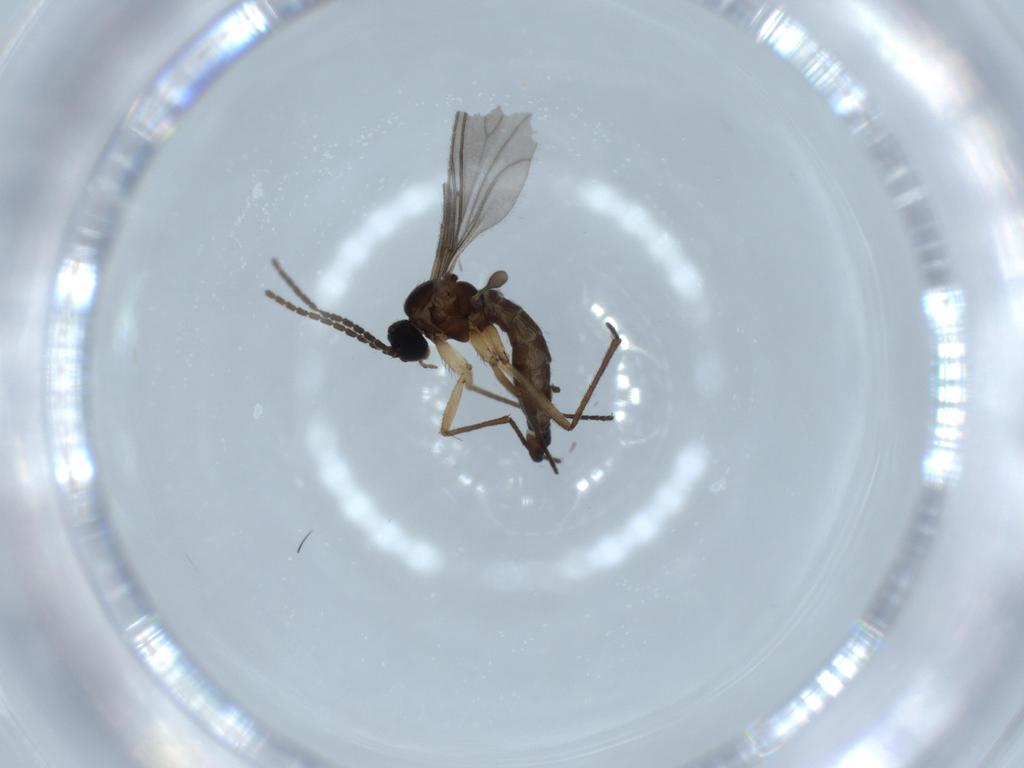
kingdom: Animalia
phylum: Arthropoda
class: Insecta
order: Diptera
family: Sciaridae
